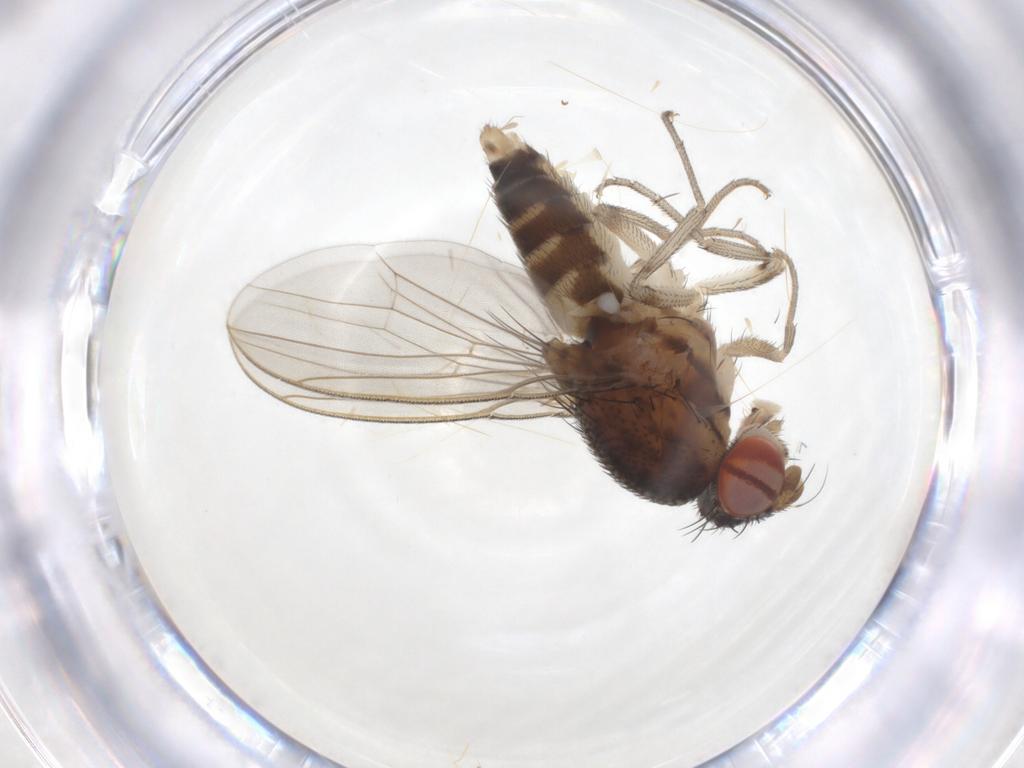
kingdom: Animalia
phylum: Arthropoda
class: Insecta
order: Diptera
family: Drosophilidae
